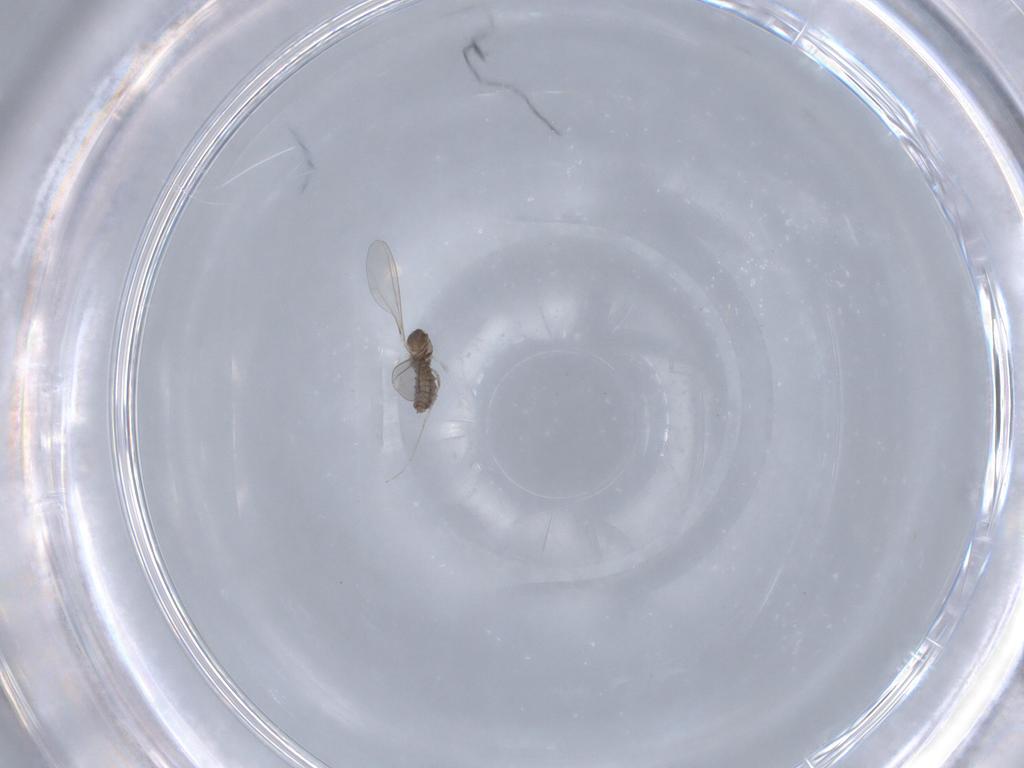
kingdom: Animalia
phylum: Arthropoda
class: Insecta
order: Diptera
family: Cecidomyiidae
